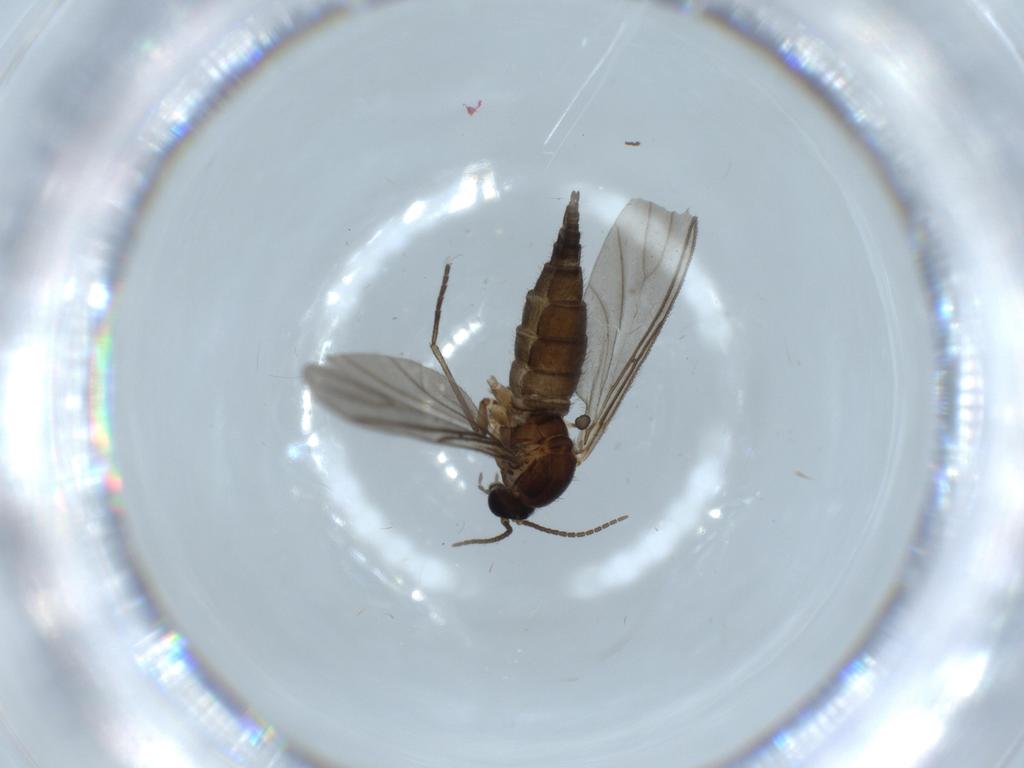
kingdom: Animalia
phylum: Arthropoda
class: Insecta
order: Diptera
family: Sciaridae
